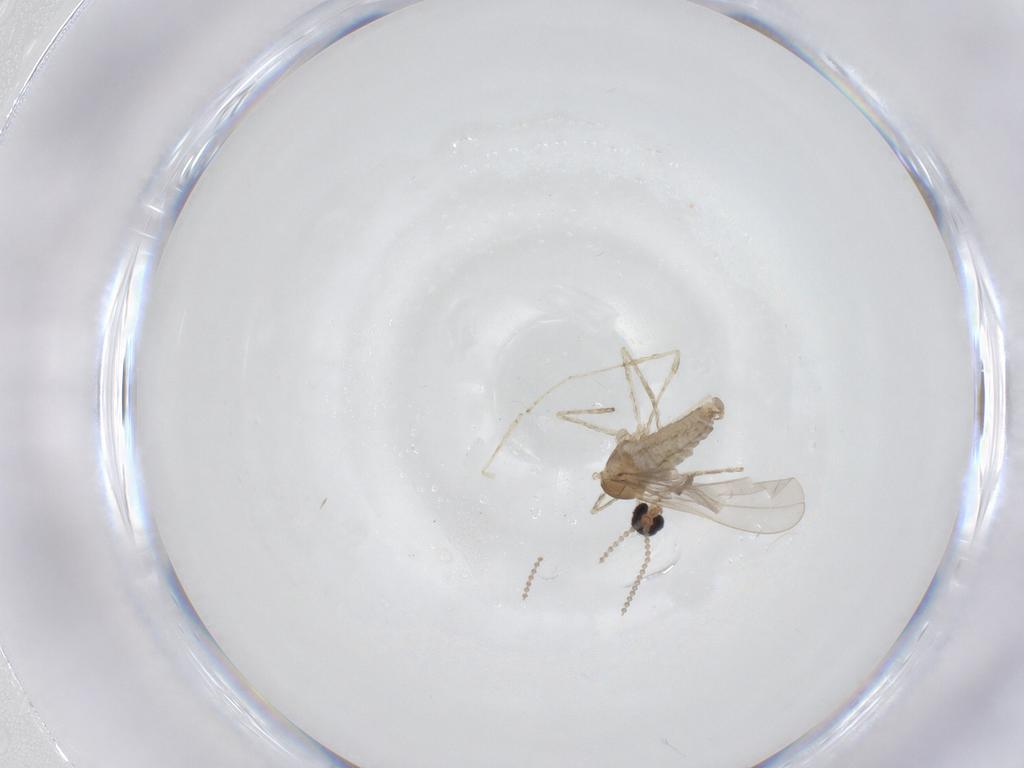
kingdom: Animalia
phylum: Arthropoda
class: Insecta
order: Diptera
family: Cecidomyiidae
